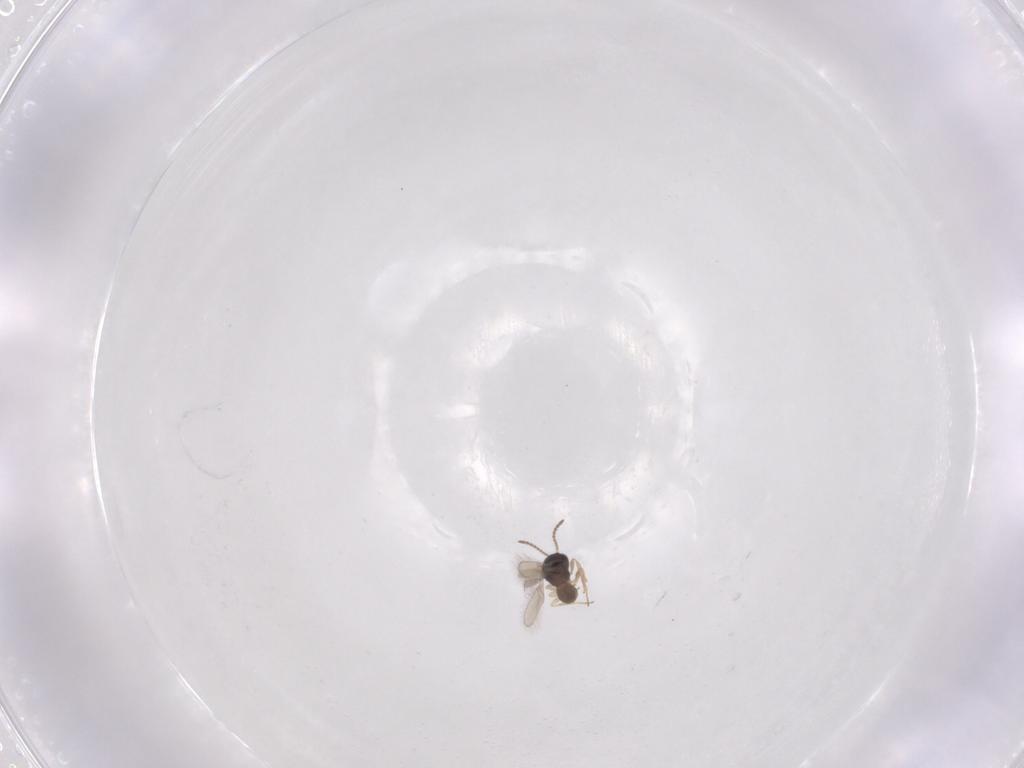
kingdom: Animalia
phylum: Arthropoda
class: Insecta
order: Hymenoptera
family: Scelionidae
